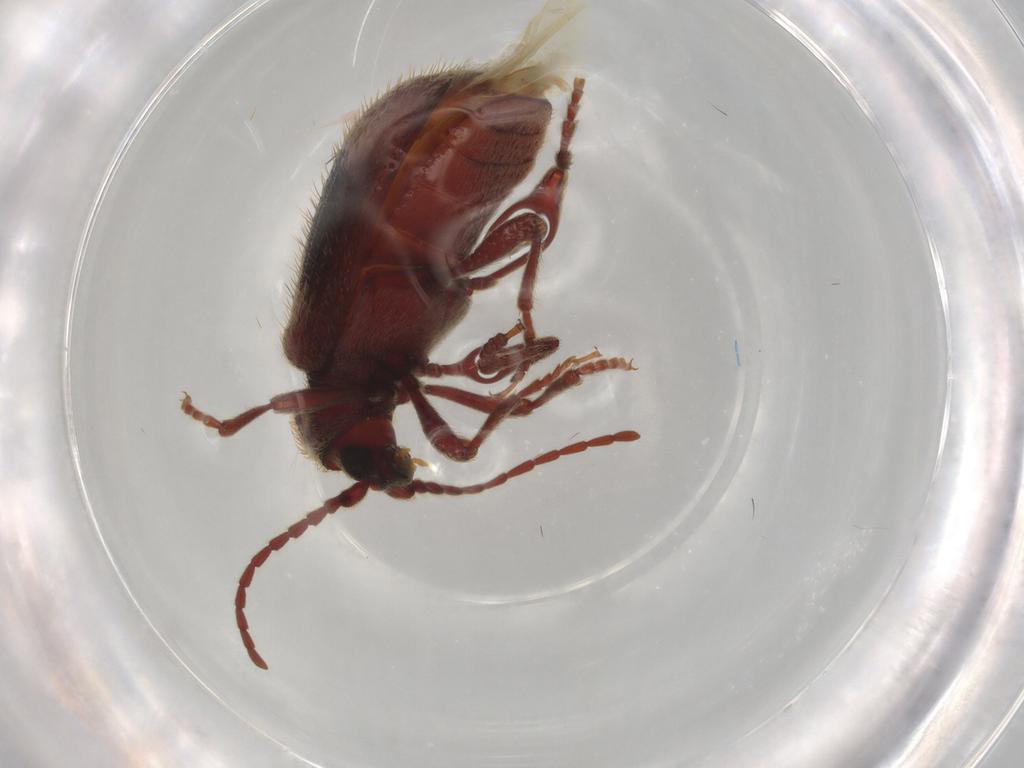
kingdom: Animalia
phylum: Arthropoda
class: Insecta
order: Coleoptera
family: Ptinidae
